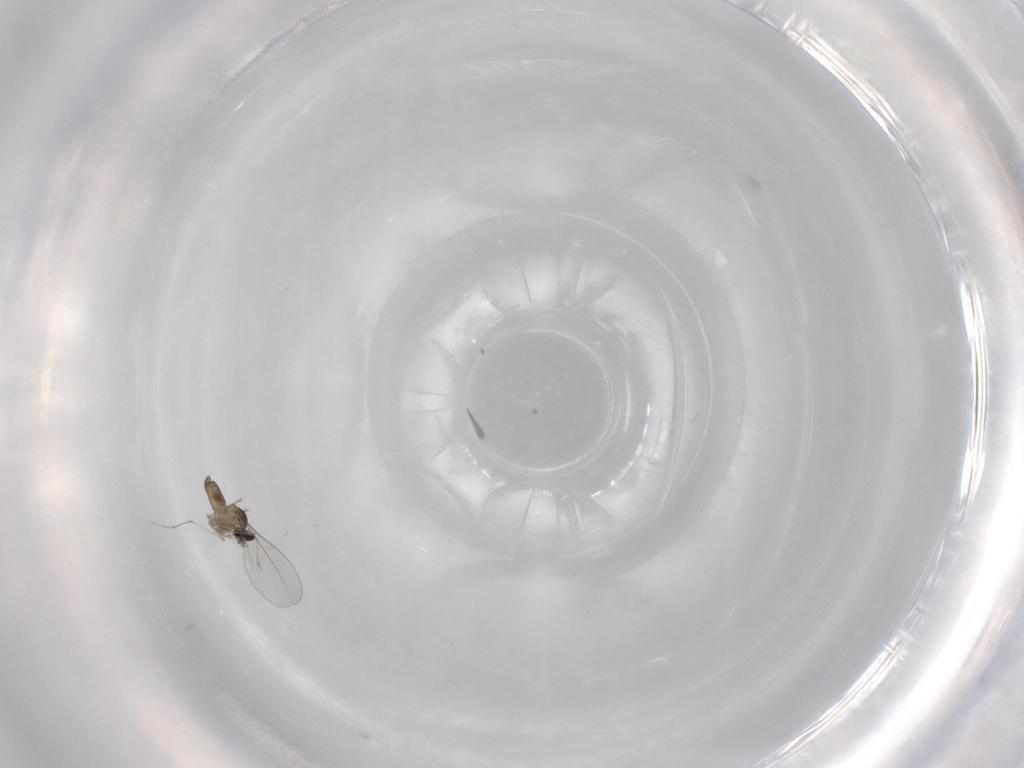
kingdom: Animalia
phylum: Arthropoda
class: Insecta
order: Diptera
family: Cecidomyiidae
